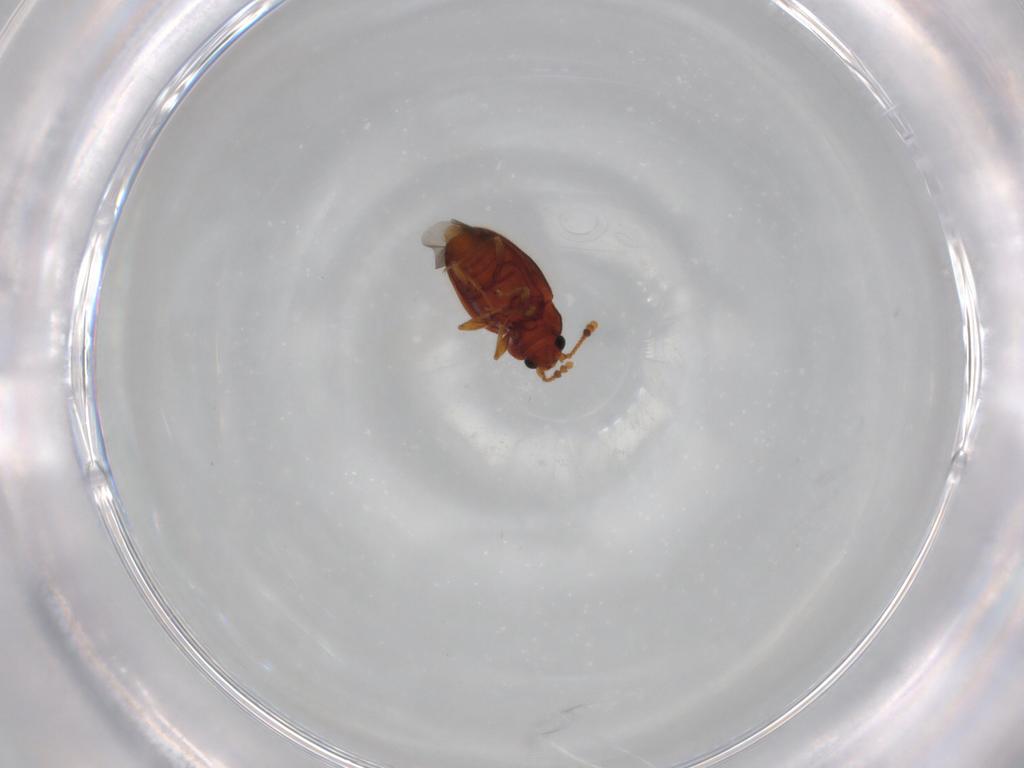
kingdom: Animalia
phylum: Arthropoda
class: Insecta
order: Coleoptera
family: Erotylidae
